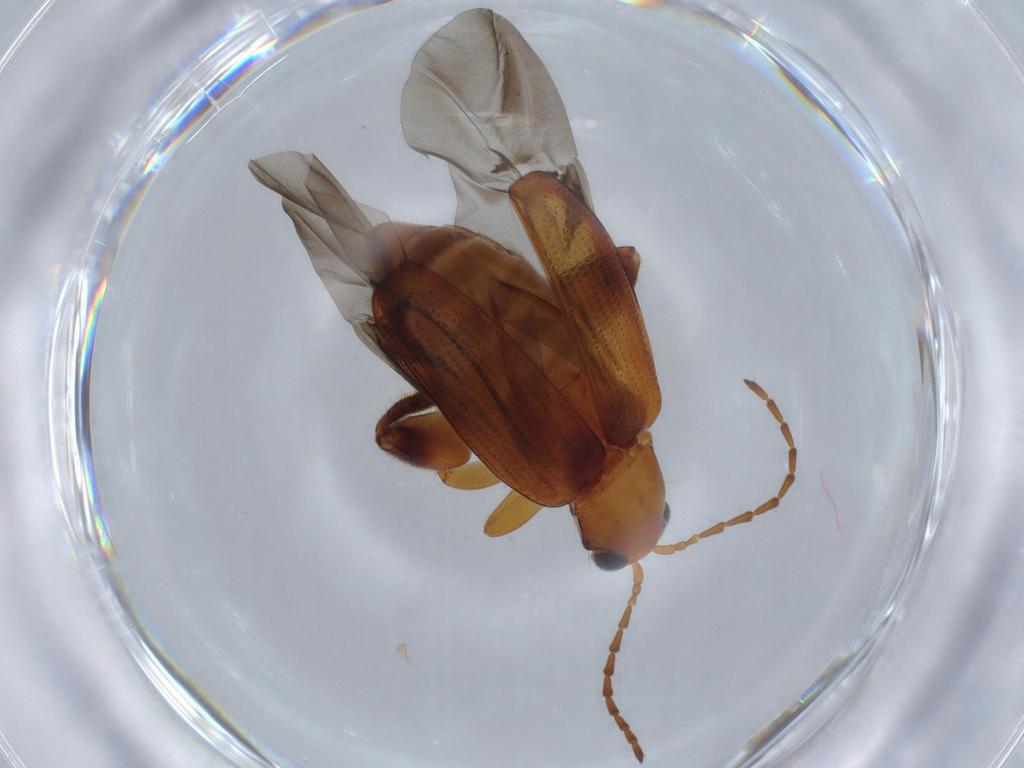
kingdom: Animalia
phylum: Arthropoda
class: Insecta
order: Coleoptera
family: Chrysomelidae
